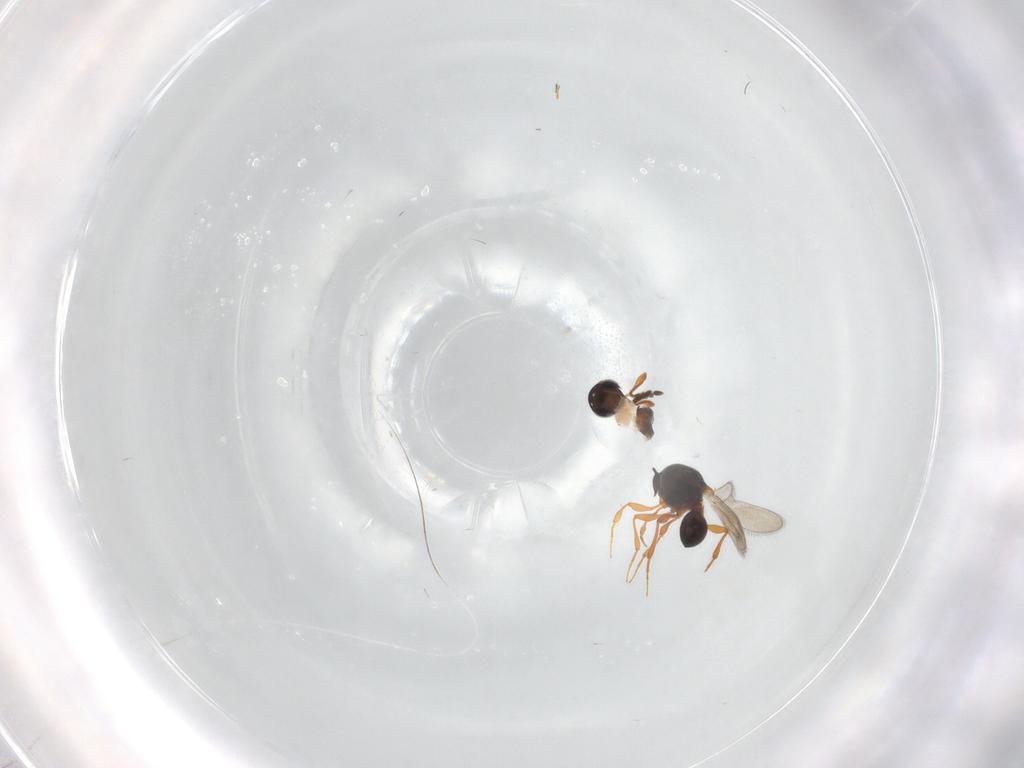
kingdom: Animalia
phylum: Arthropoda
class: Insecta
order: Hymenoptera
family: Platygastridae
